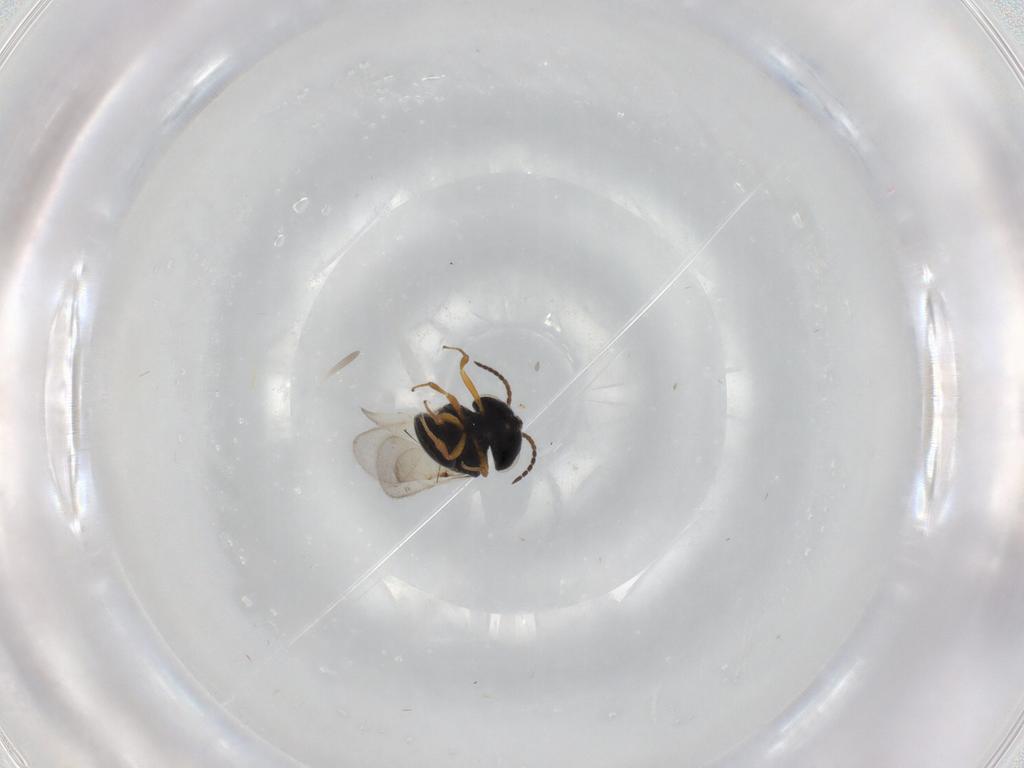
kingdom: Animalia
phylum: Arthropoda
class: Insecta
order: Hymenoptera
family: Scelionidae
